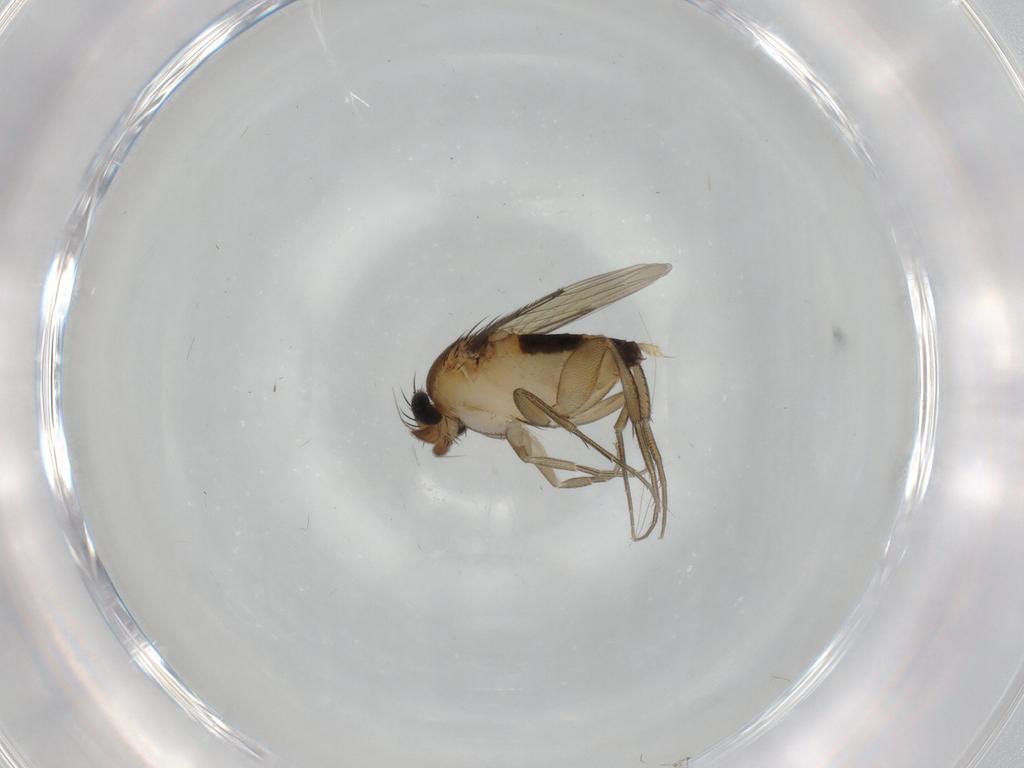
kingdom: Animalia
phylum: Arthropoda
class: Insecta
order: Diptera
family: Phoridae
